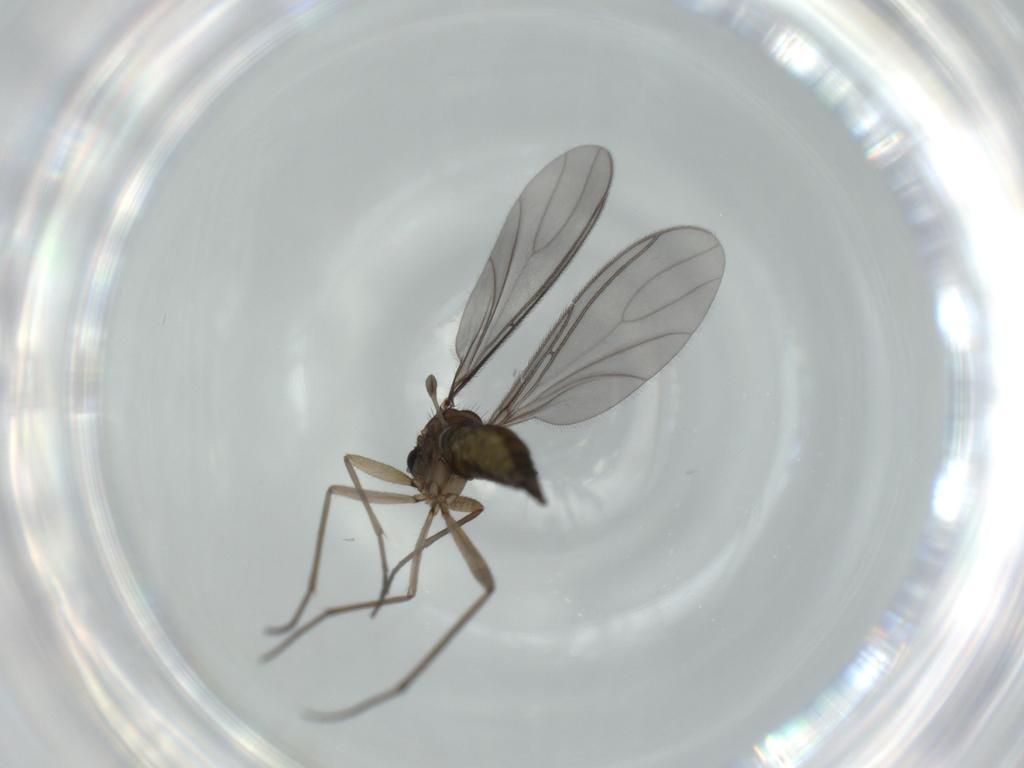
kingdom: Animalia
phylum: Arthropoda
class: Insecta
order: Diptera
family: Sciaridae
